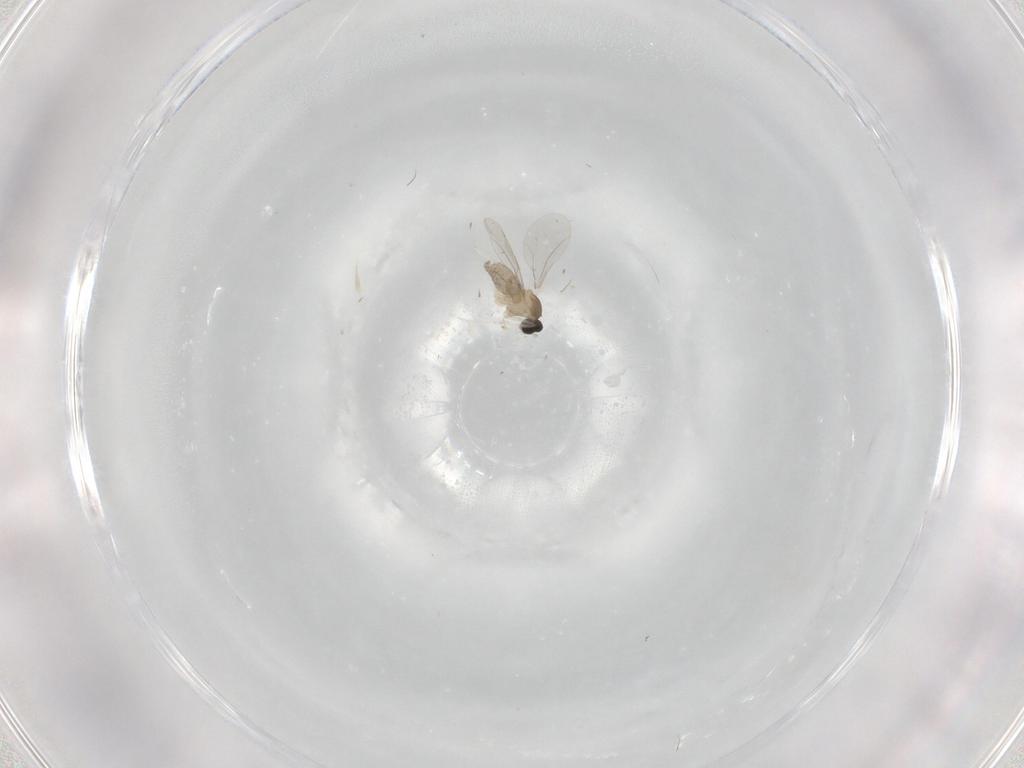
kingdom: Animalia
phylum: Arthropoda
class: Insecta
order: Diptera
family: Cecidomyiidae
